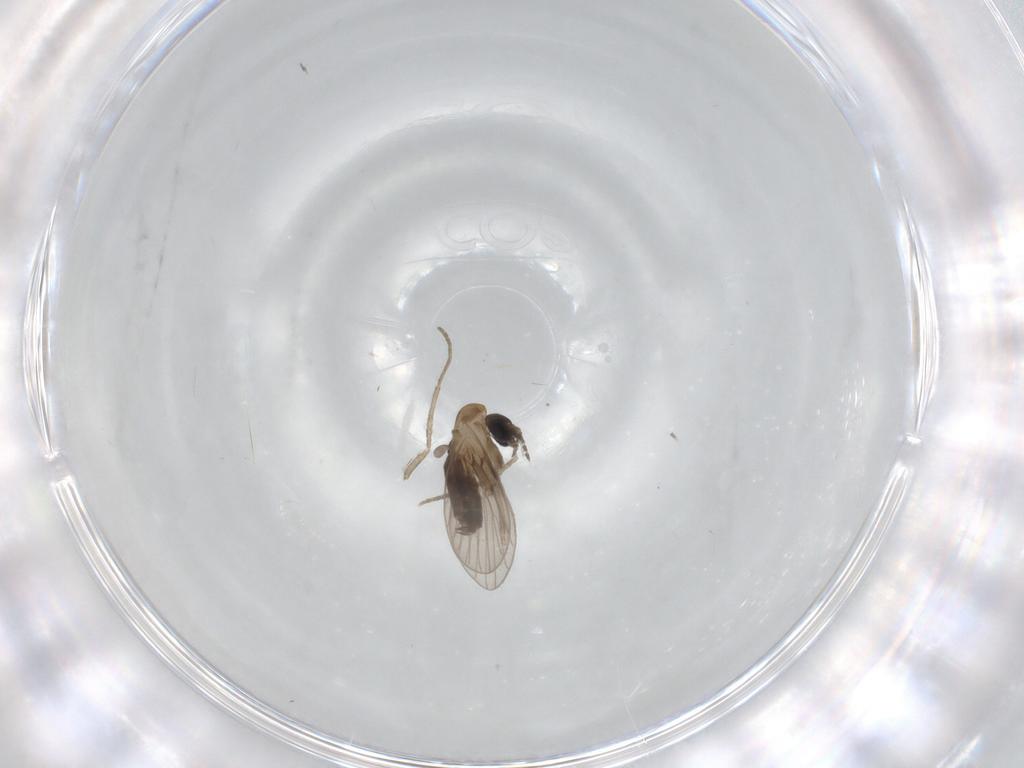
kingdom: Animalia
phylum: Arthropoda
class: Insecta
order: Diptera
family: Psychodidae
